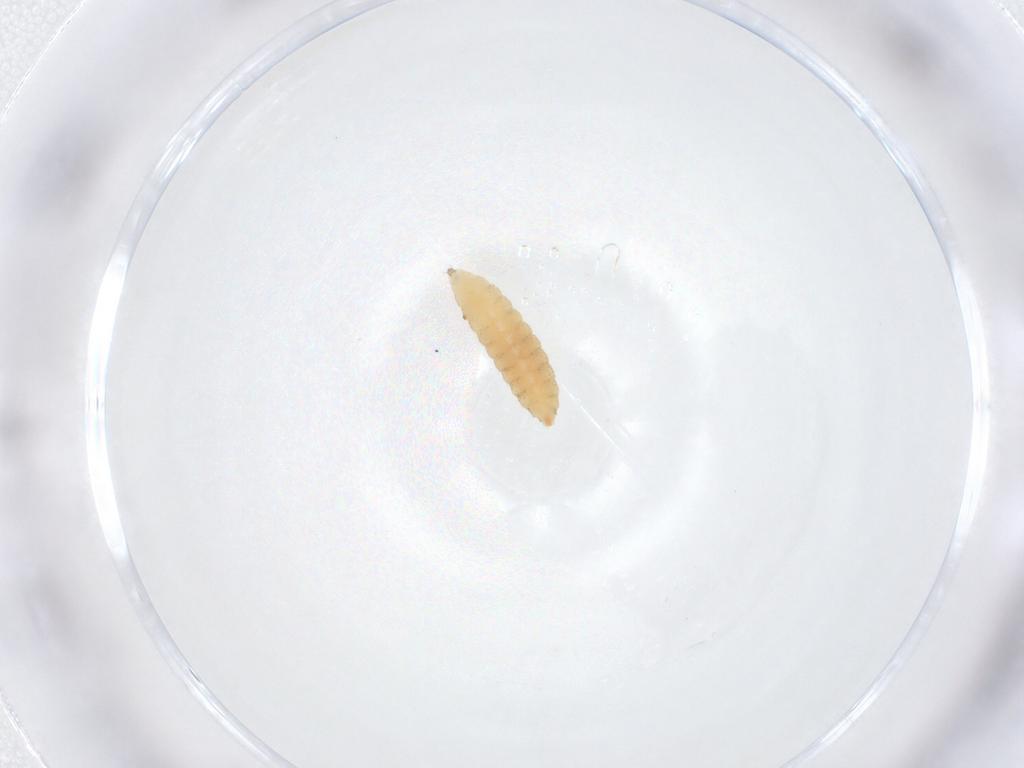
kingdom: Animalia
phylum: Arthropoda
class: Insecta
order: Diptera
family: Cecidomyiidae
